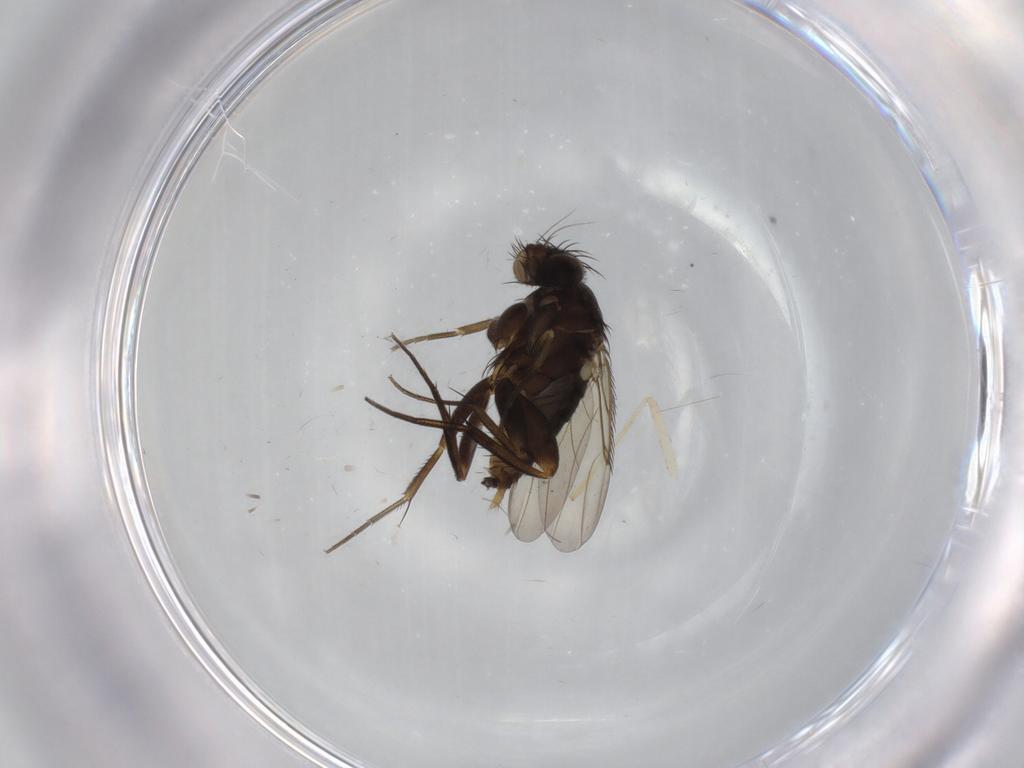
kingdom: Animalia
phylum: Arthropoda
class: Insecta
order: Diptera
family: Phoridae
